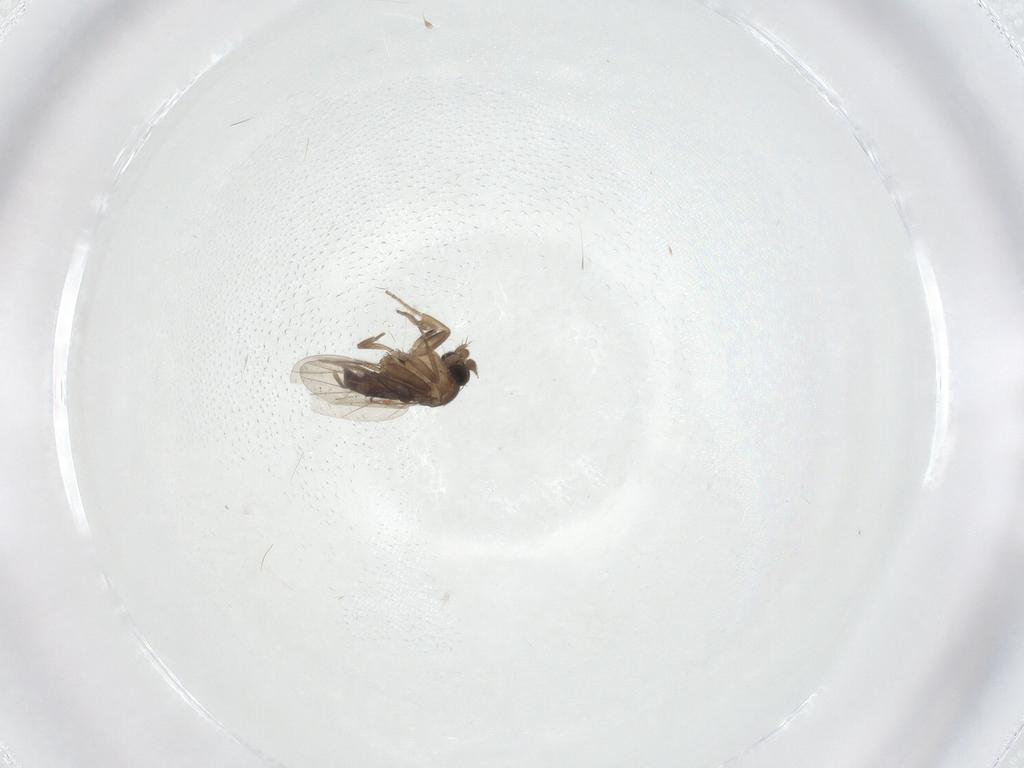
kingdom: Animalia
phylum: Arthropoda
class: Insecta
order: Diptera
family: Phoridae
